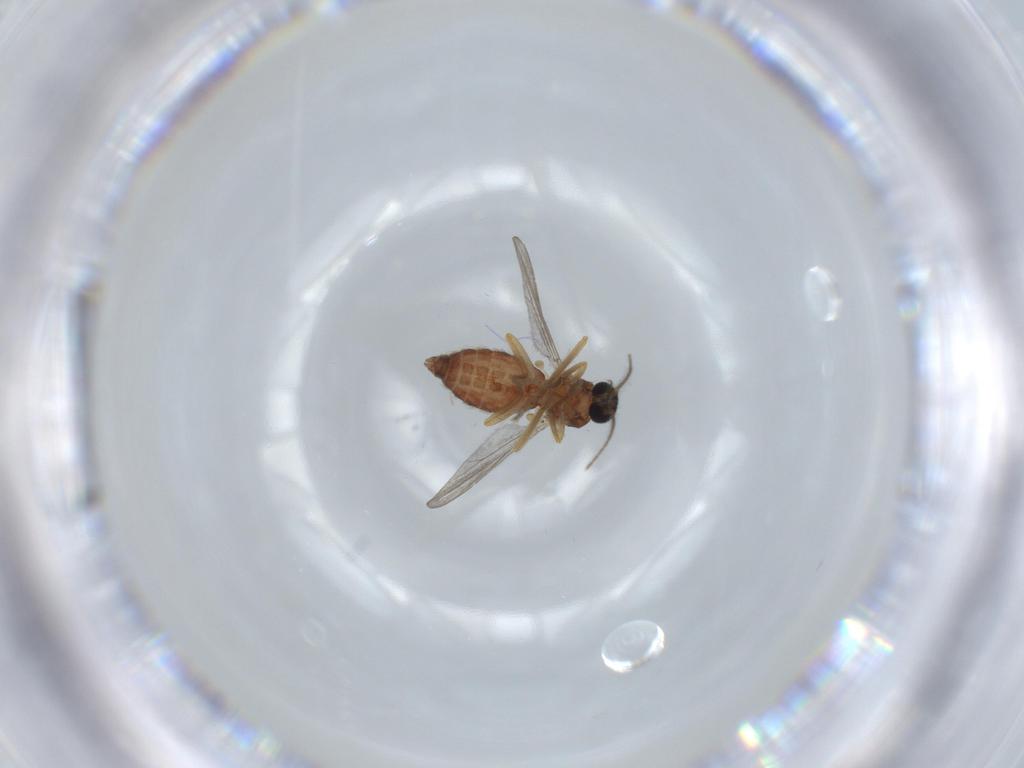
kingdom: Animalia
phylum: Arthropoda
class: Insecta
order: Diptera
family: Ceratopogonidae
